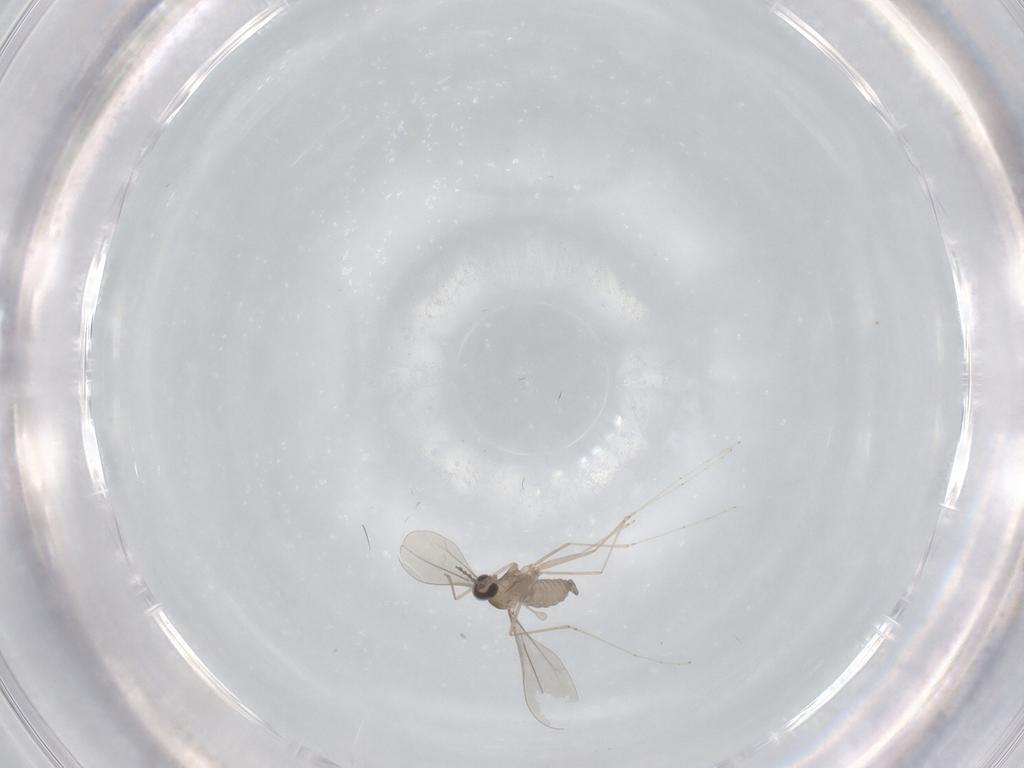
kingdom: Animalia
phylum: Arthropoda
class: Insecta
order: Diptera
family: Cecidomyiidae
